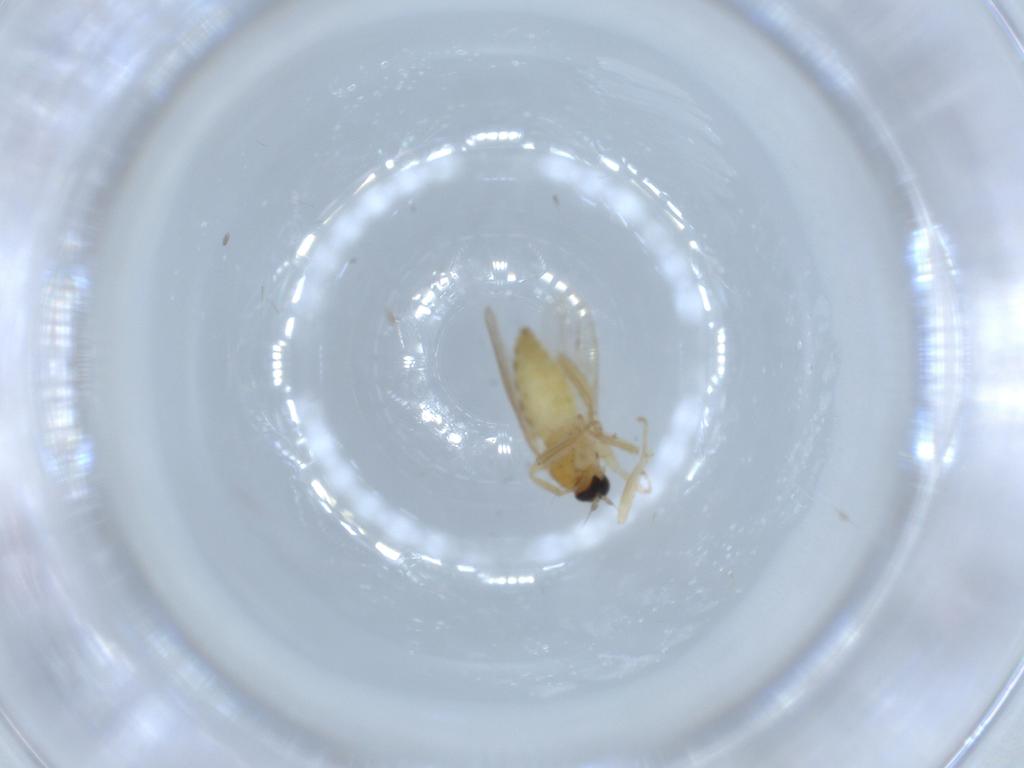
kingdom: Animalia
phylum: Arthropoda
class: Insecta
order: Diptera
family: Hybotidae
